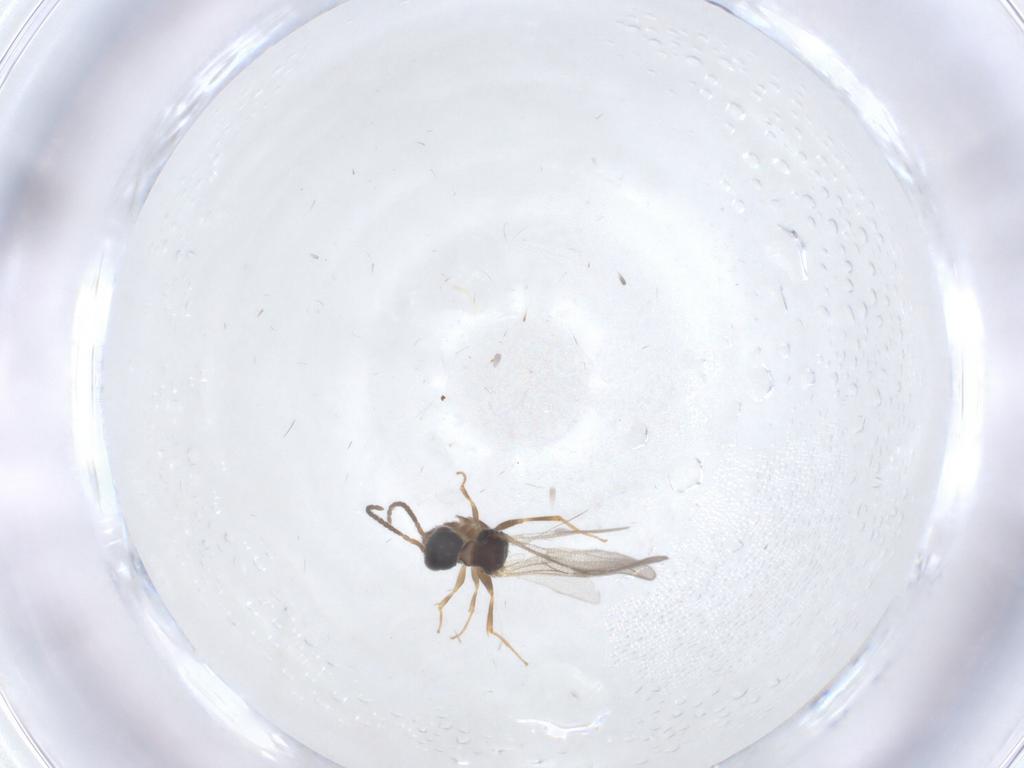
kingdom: Animalia
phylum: Arthropoda
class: Insecta
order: Hymenoptera
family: Bethylidae
